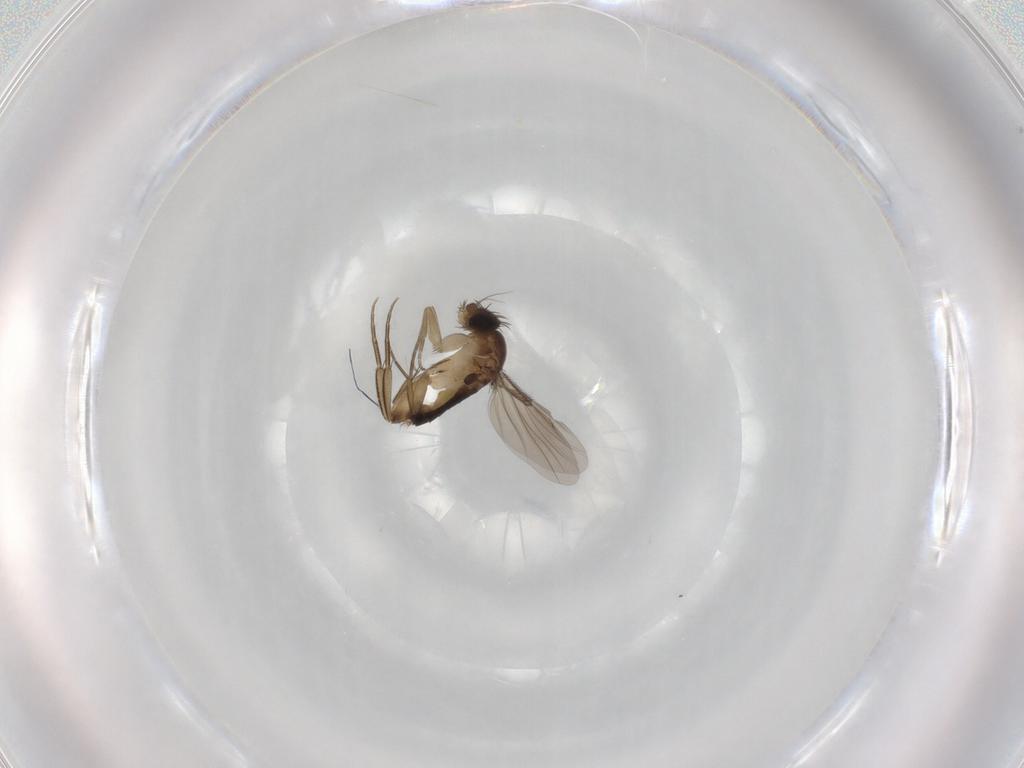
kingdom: Animalia
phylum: Arthropoda
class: Insecta
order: Diptera
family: Phoridae
